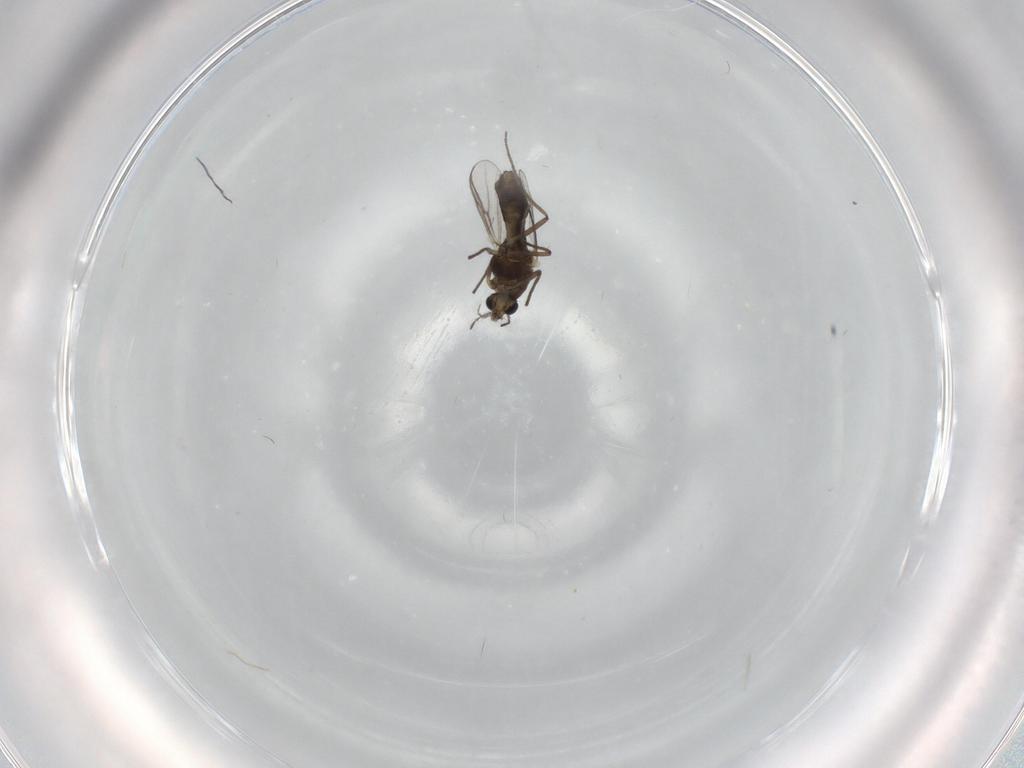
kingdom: Animalia
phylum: Arthropoda
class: Insecta
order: Diptera
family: Chironomidae
